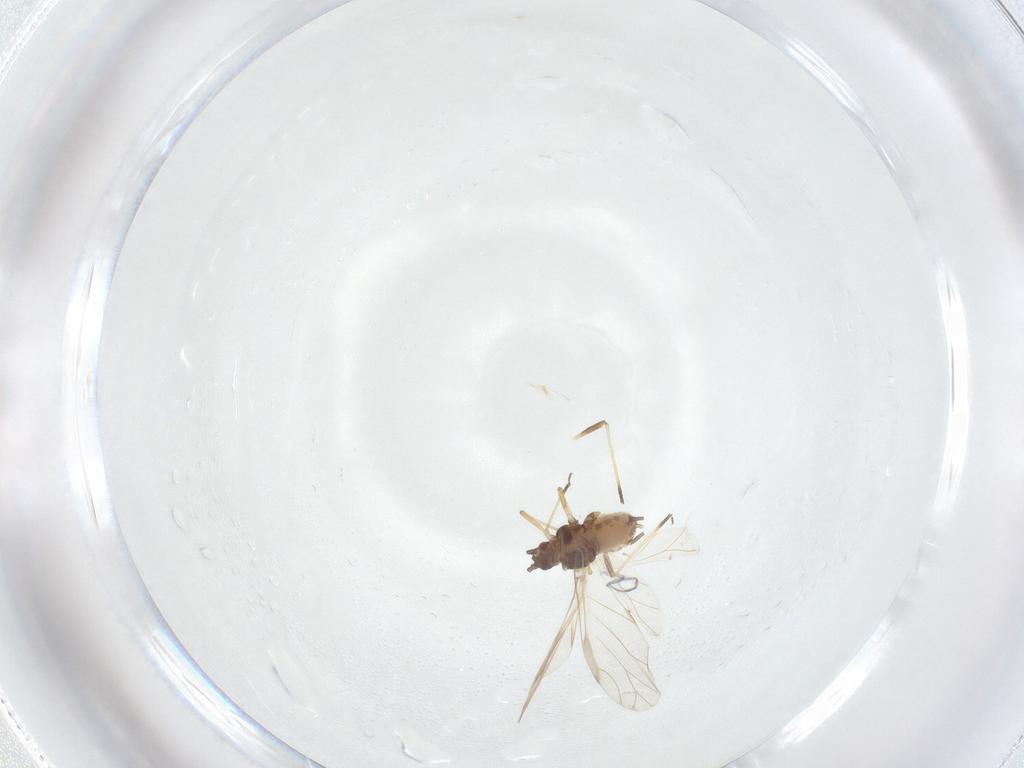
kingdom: Animalia
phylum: Arthropoda
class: Insecta
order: Hemiptera
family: Aphididae
